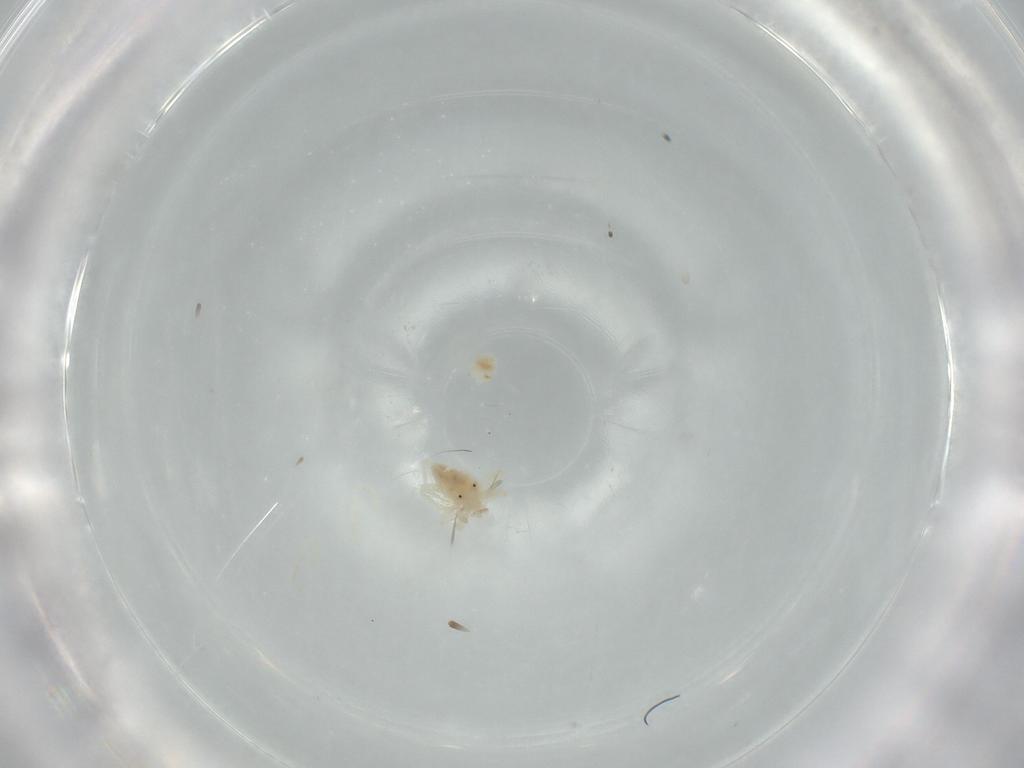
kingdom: Animalia
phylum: Arthropoda
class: Arachnida
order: Trombidiformes
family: Anystidae
